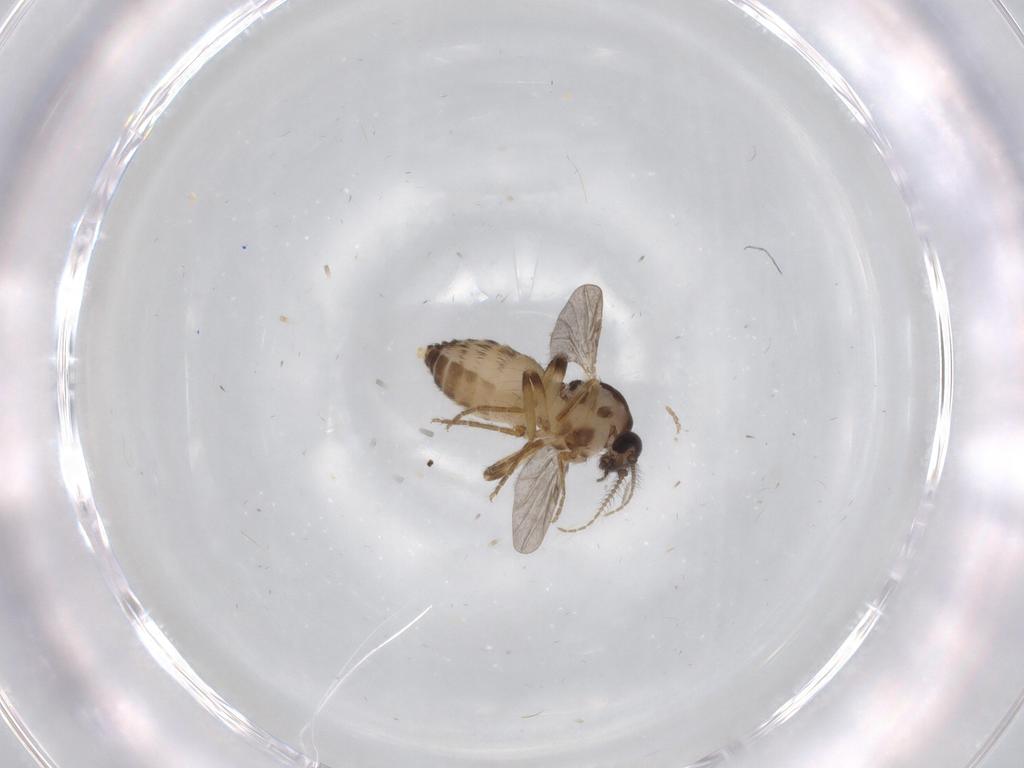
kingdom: Animalia
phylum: Arthropoda
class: Insecta
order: Diptera
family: Ceratopogonidae
